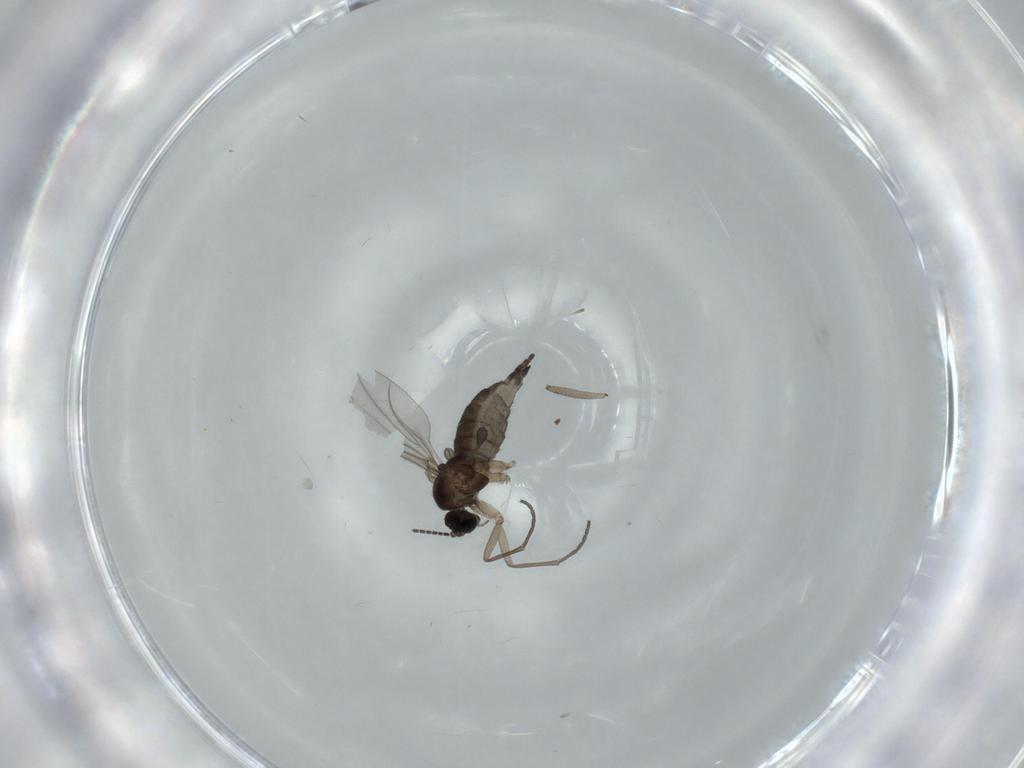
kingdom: Animalia
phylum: Arthropoda
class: Insecta
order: Diptera
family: Sciaridae
